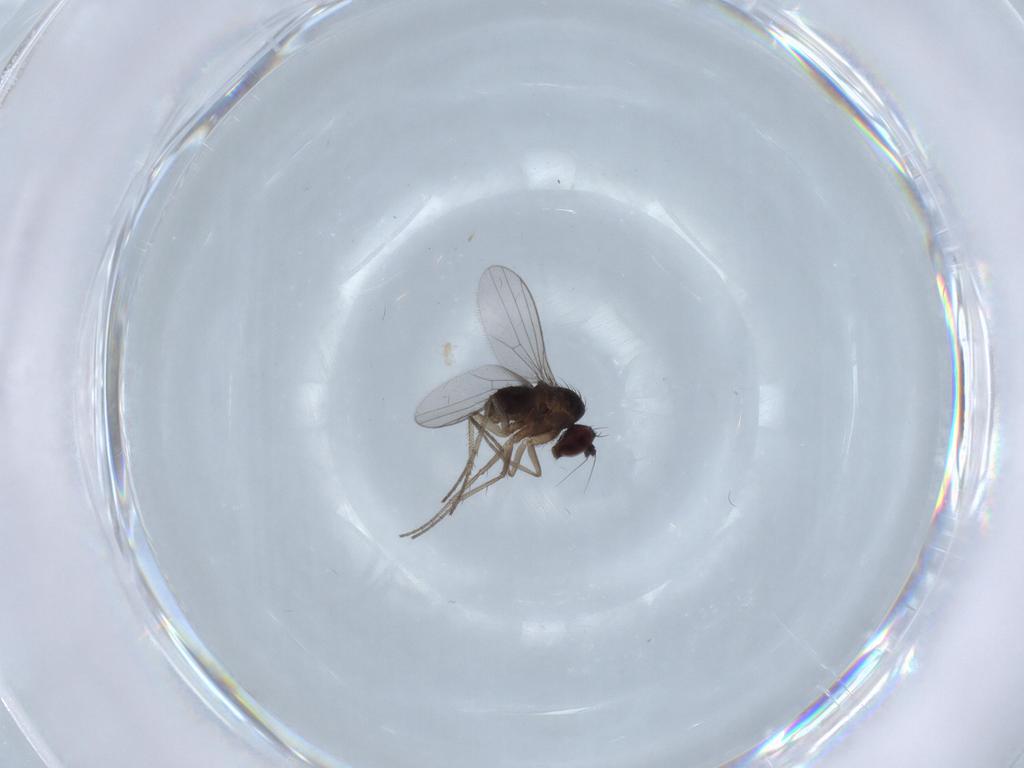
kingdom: Animalia
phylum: Arthropoda
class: Insecta
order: Diptera
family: Dolichopodidae
